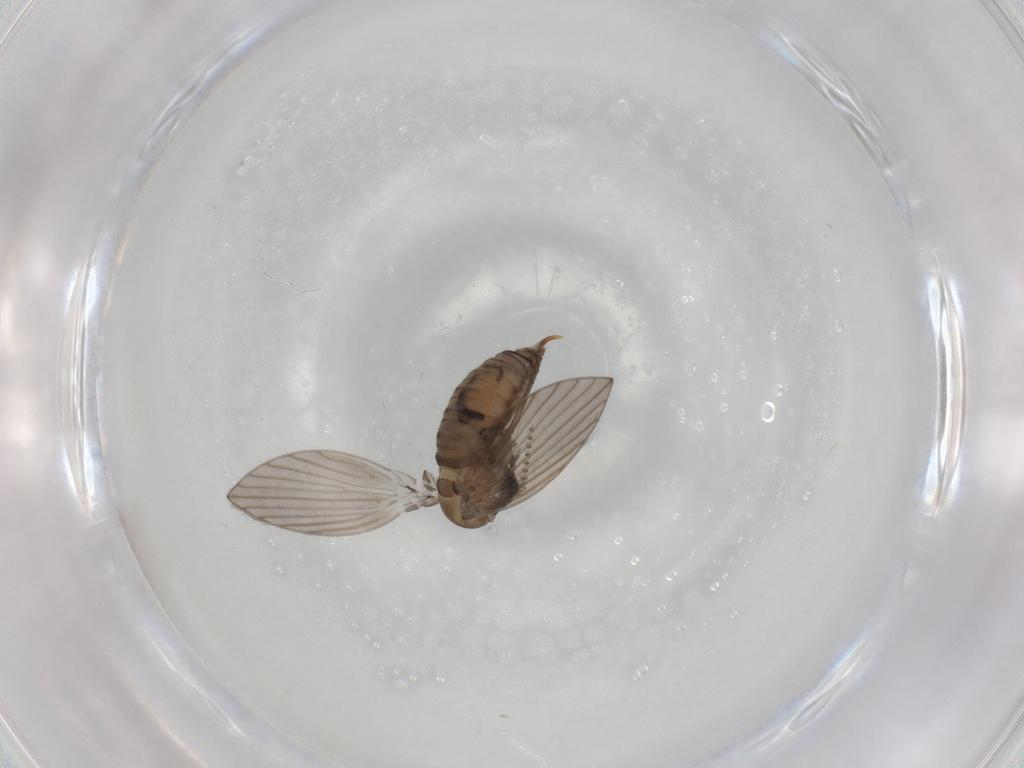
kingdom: Animalia
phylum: Arthropoda
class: Insecta
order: Diptera
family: Psychodidae
